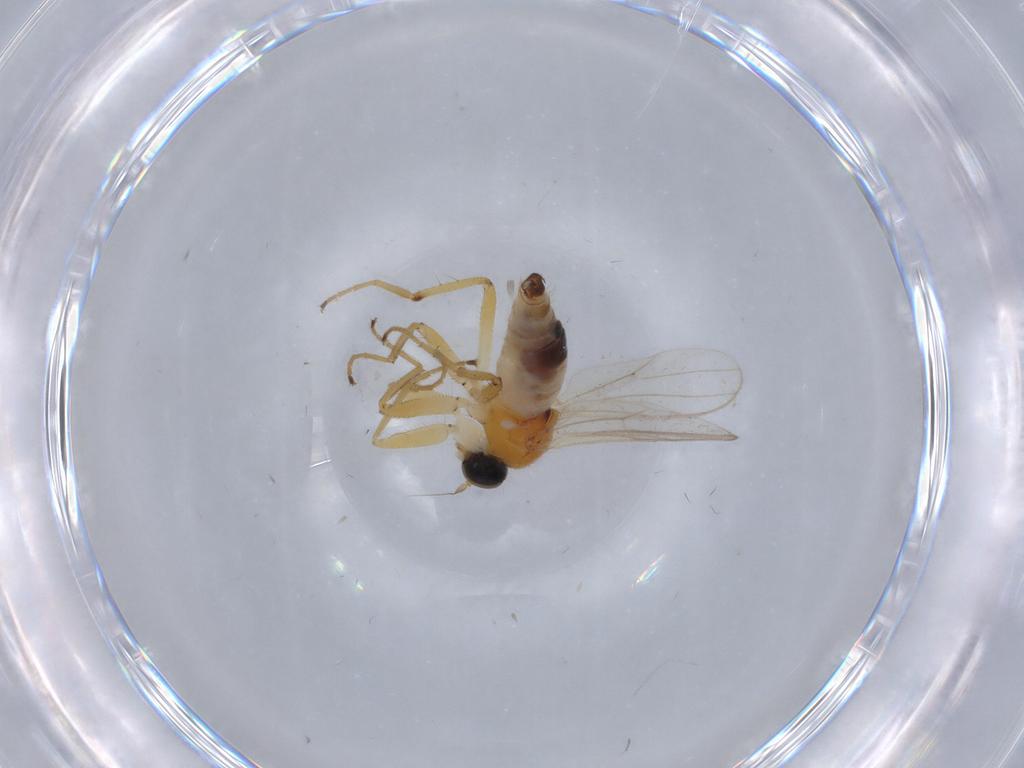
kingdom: Animalia
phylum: Arthropoda
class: Insecta
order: Diptera
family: Hybotidae
